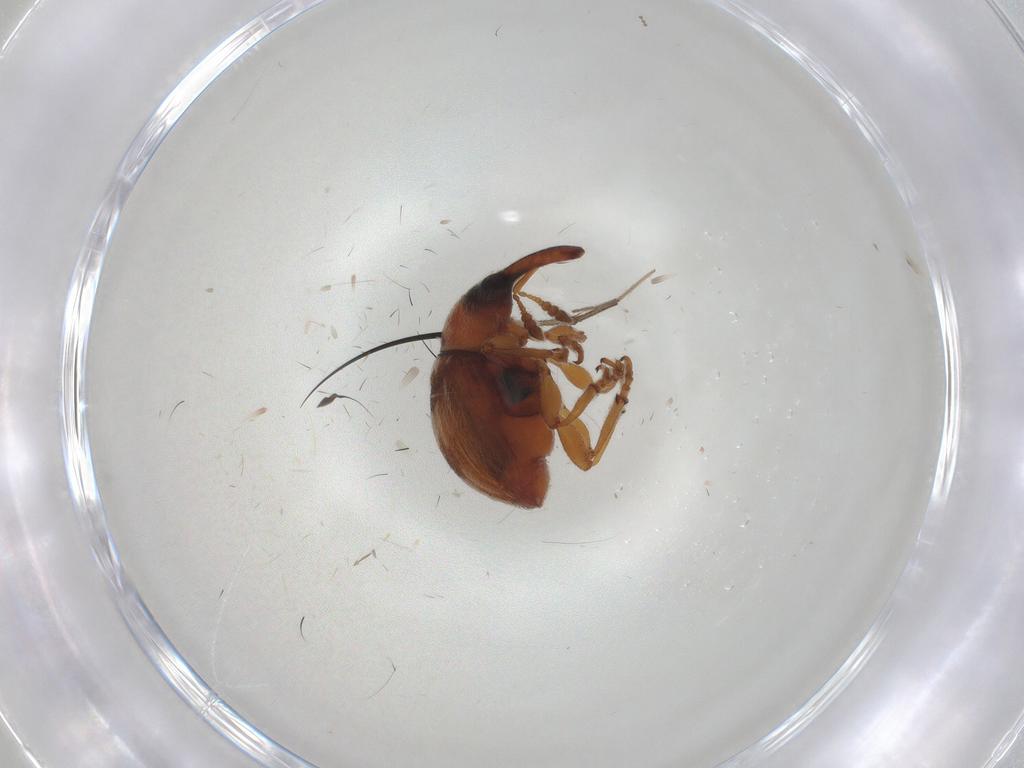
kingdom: Animalia
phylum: Arthropoda
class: Insecta
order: Coleoptera
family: Brentidae
